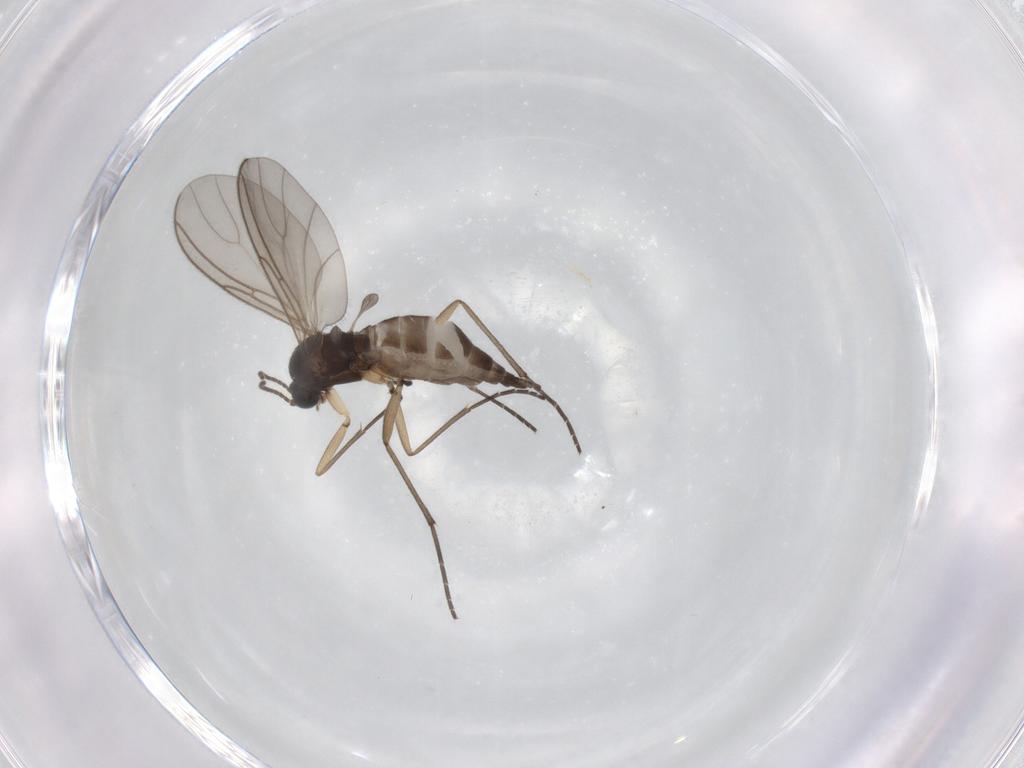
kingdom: Animalia
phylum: Arthropoda
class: Insecta
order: Diptera
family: Sciaridae
